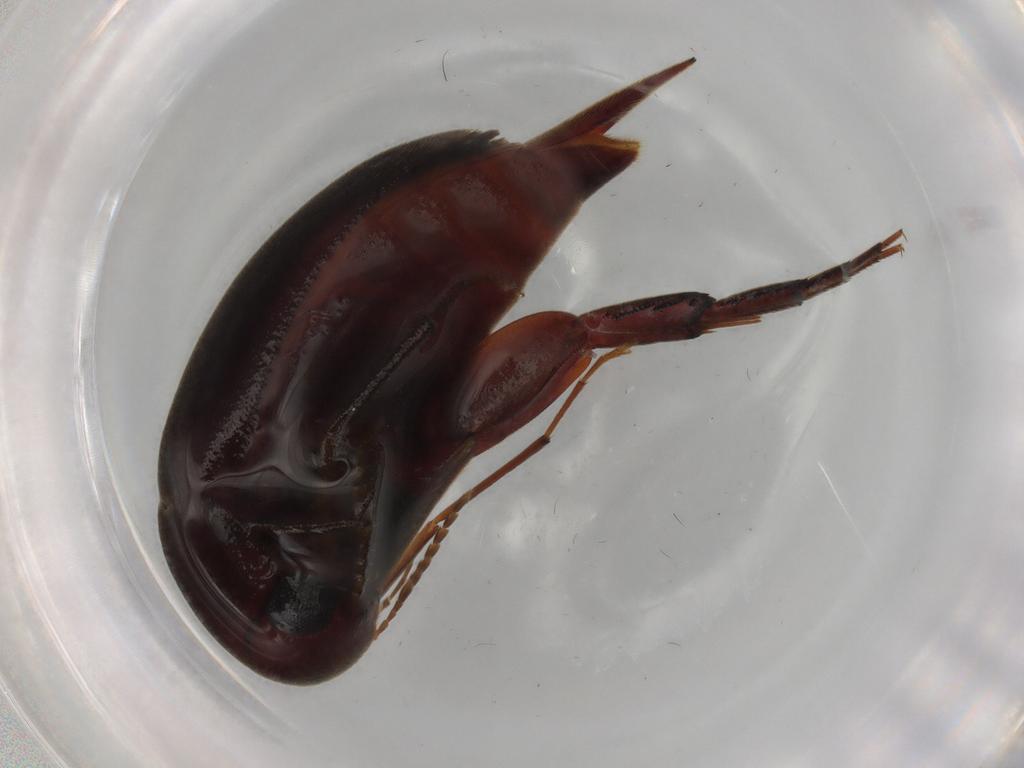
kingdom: Animalia
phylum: Arthropoda
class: Insecta
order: Coleoptera
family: Mordellidae
